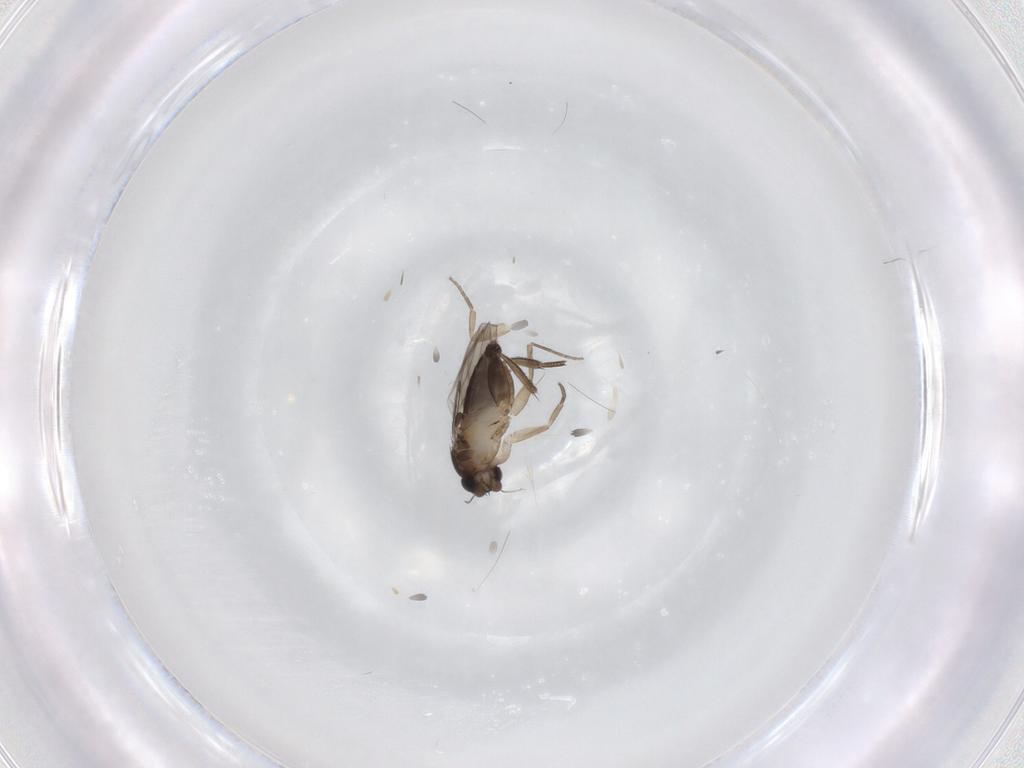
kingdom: Animalia
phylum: Arthropoda
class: Insecta
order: Diptera
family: Phoridae
